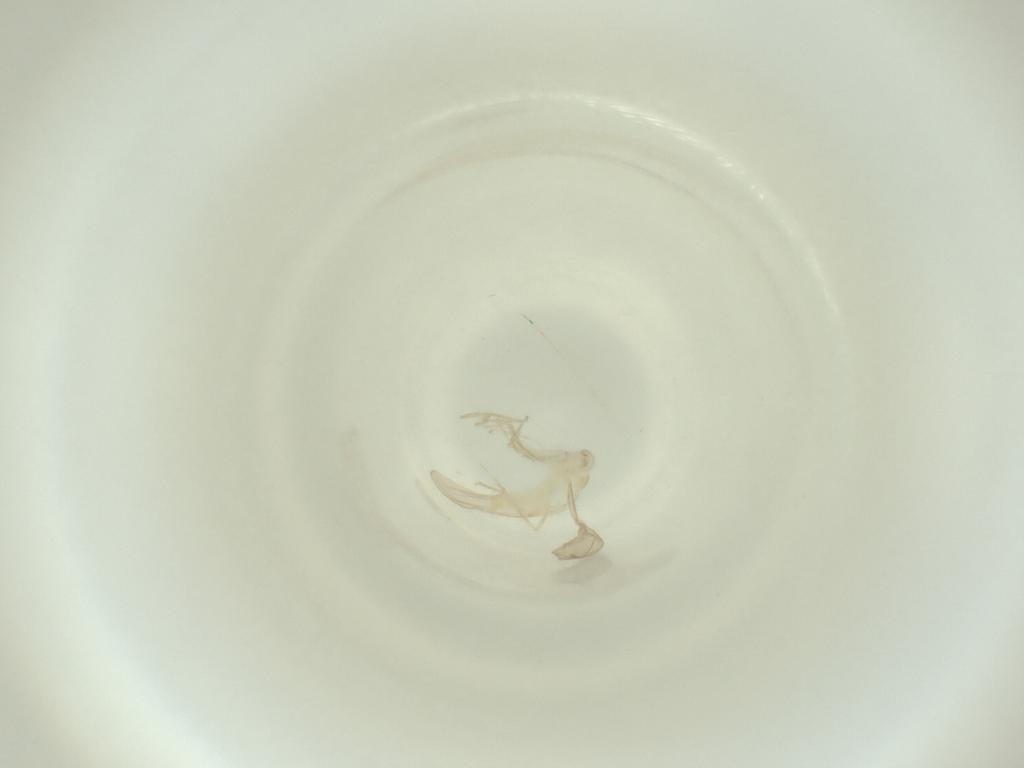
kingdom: Animalia
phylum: Arthropoda
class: Insecta
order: Diptera
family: Cecidomyiidae
